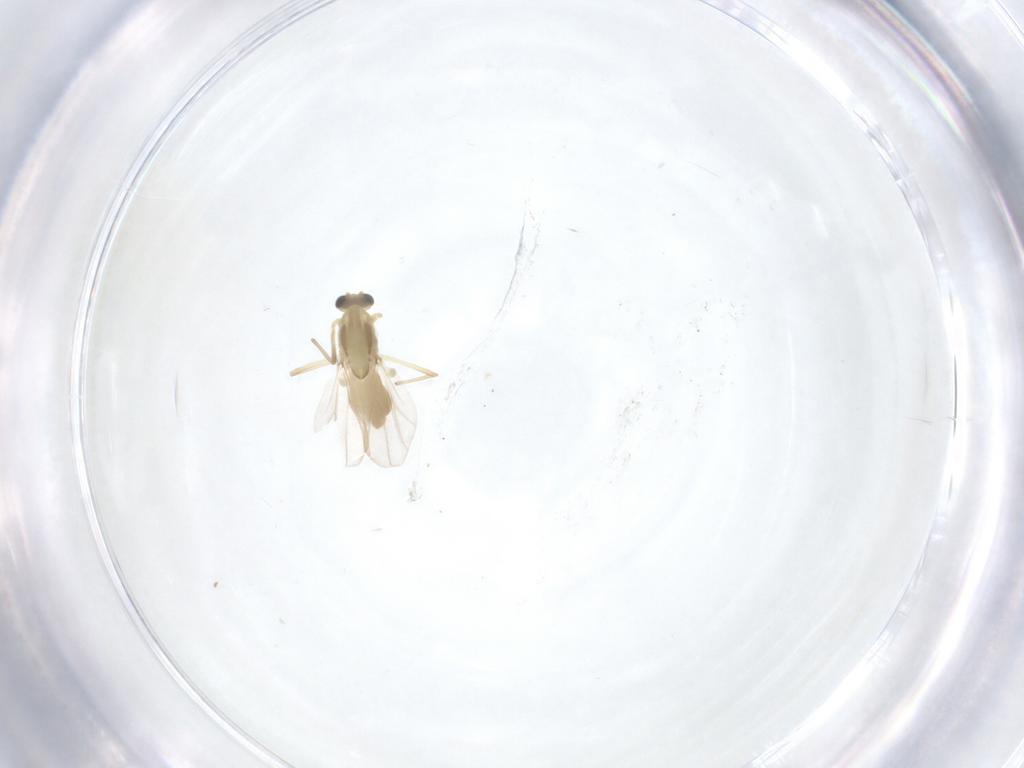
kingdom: Animalia
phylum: Arthropoda
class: Insecta
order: Diptera
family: Chironomidae
